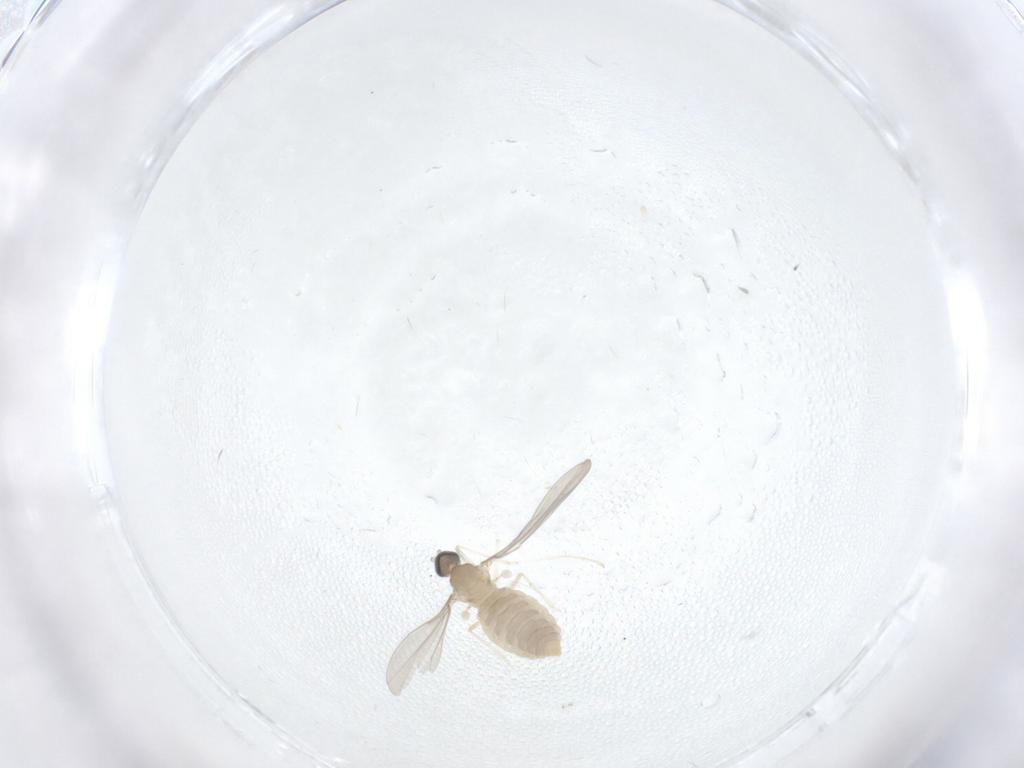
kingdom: Animalia
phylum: Arthropoda
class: Insecta
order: Diptera
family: Cecidomyiidae
